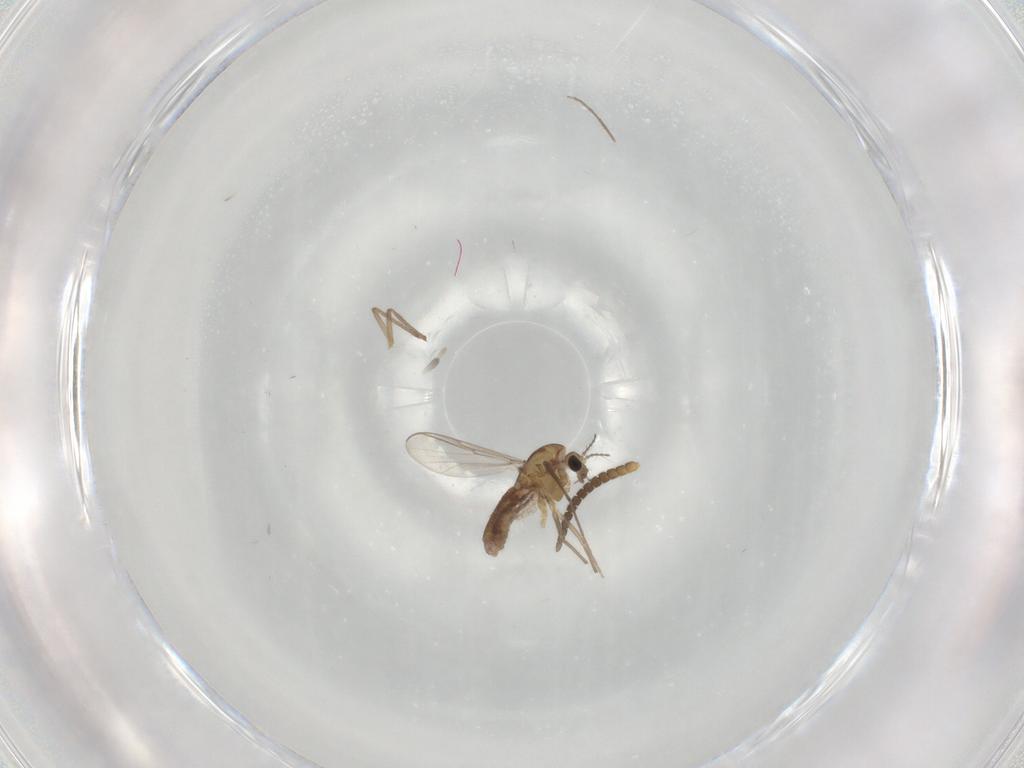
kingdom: Animalia
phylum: Arthropoda
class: Insecta
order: Diptera
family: Chironomidae
